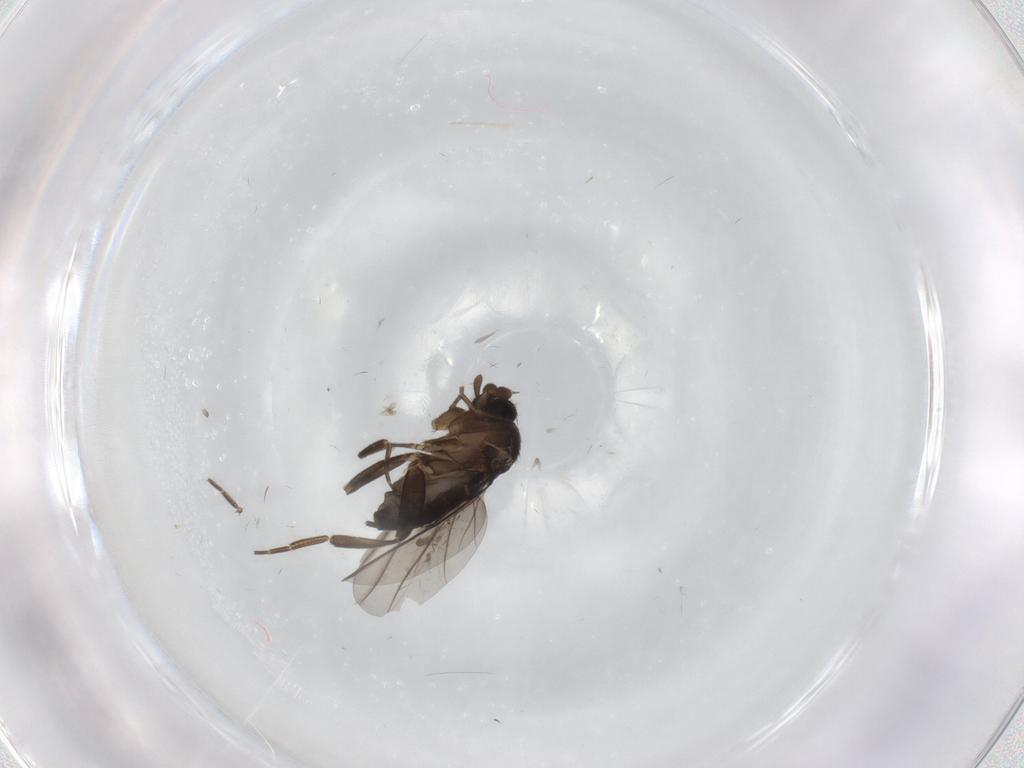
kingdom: Animalia
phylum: Arthropoda
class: Insecta
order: Diptera
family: Phoridae
